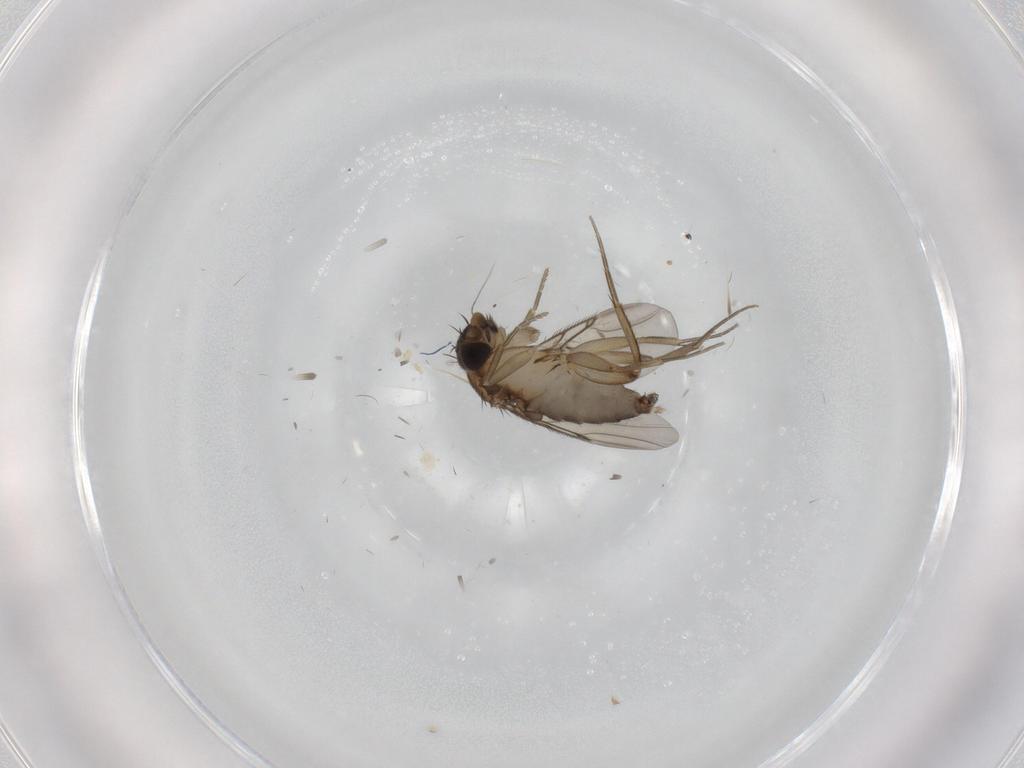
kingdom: Animalia
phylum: Arthropoda
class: Insecta
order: Diptera
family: Phoridae
